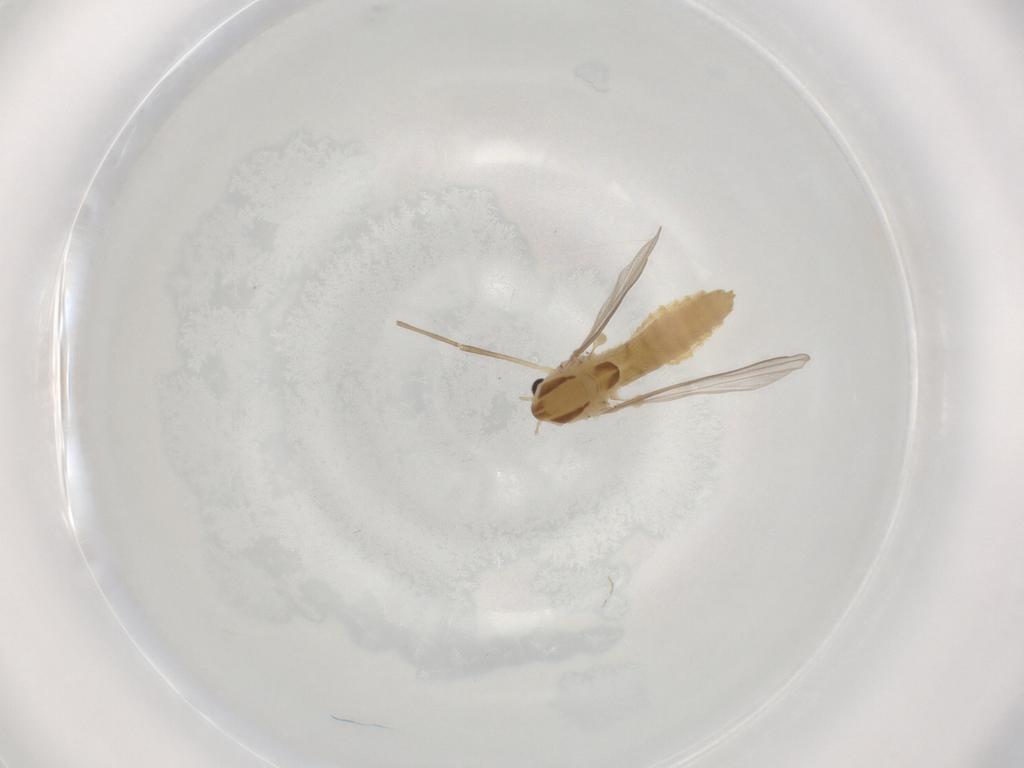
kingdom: Animalia
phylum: Arthropoda
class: Insecta
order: Diptera
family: Chironomidae
